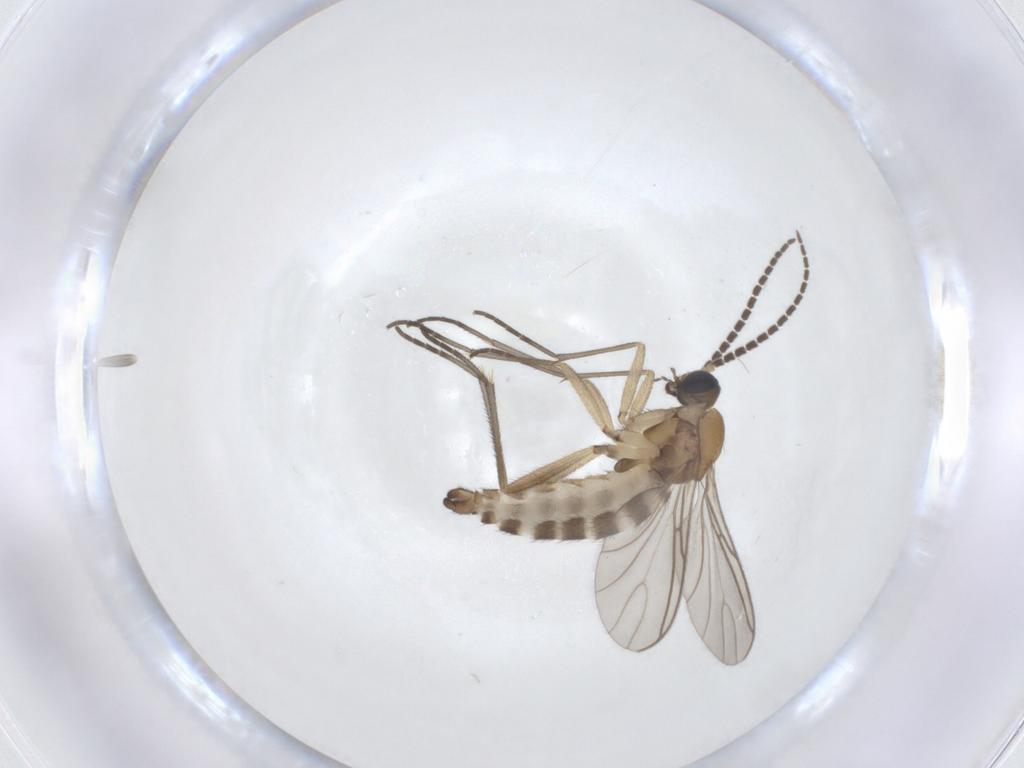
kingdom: Animalia
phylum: Arthropoda
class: Insecta
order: Diptera
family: Sciaridae
